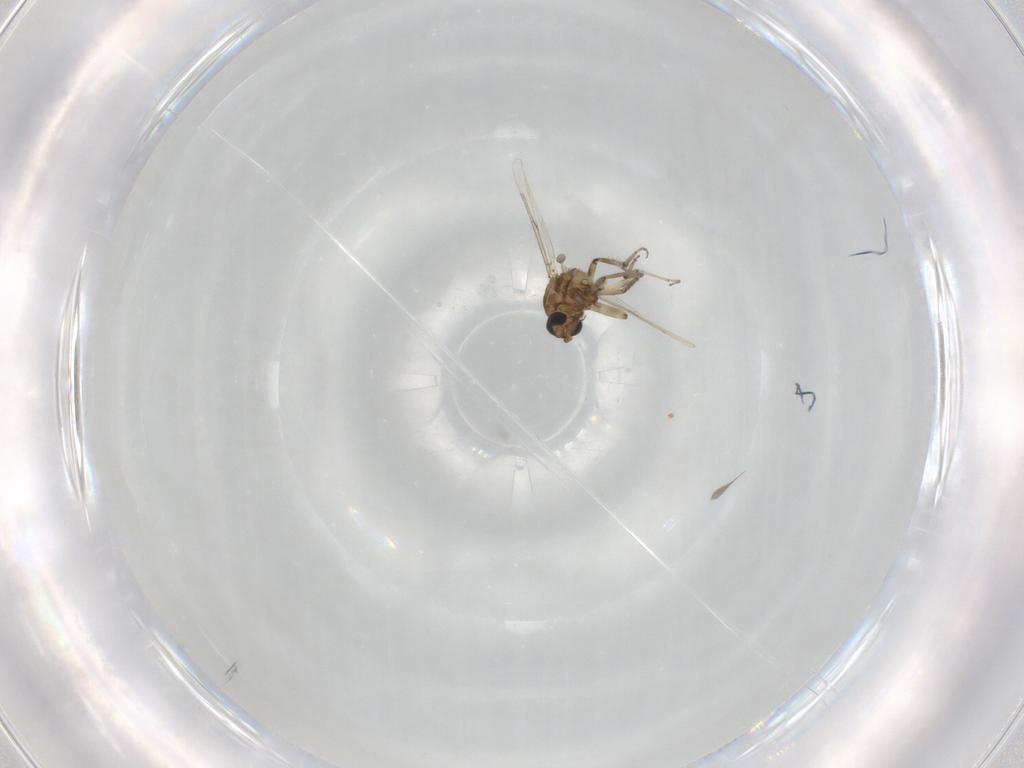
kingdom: Animalia
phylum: Arthropoda
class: Insecta
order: Diptera
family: Ceratopogonidae
